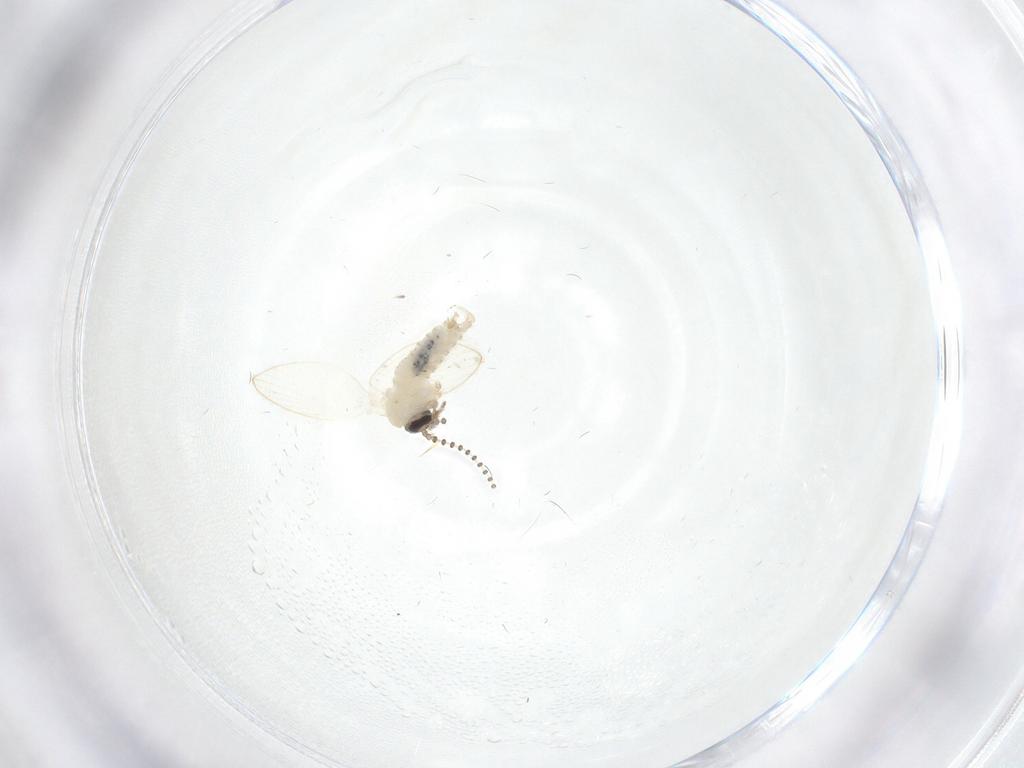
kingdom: Animalia
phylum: Arthropoda
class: Insecta
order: Diptera
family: Psychodidae
